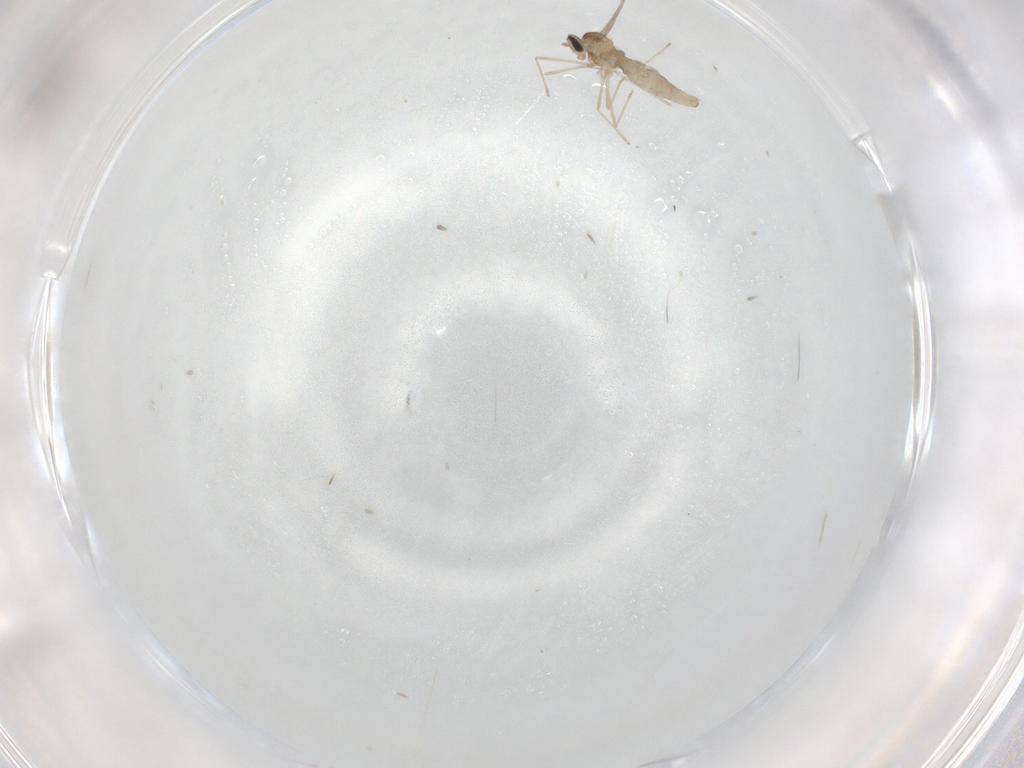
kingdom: Animalia
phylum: Arthropoda
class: Insecta
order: Diptera
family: Cecidomyiidae
